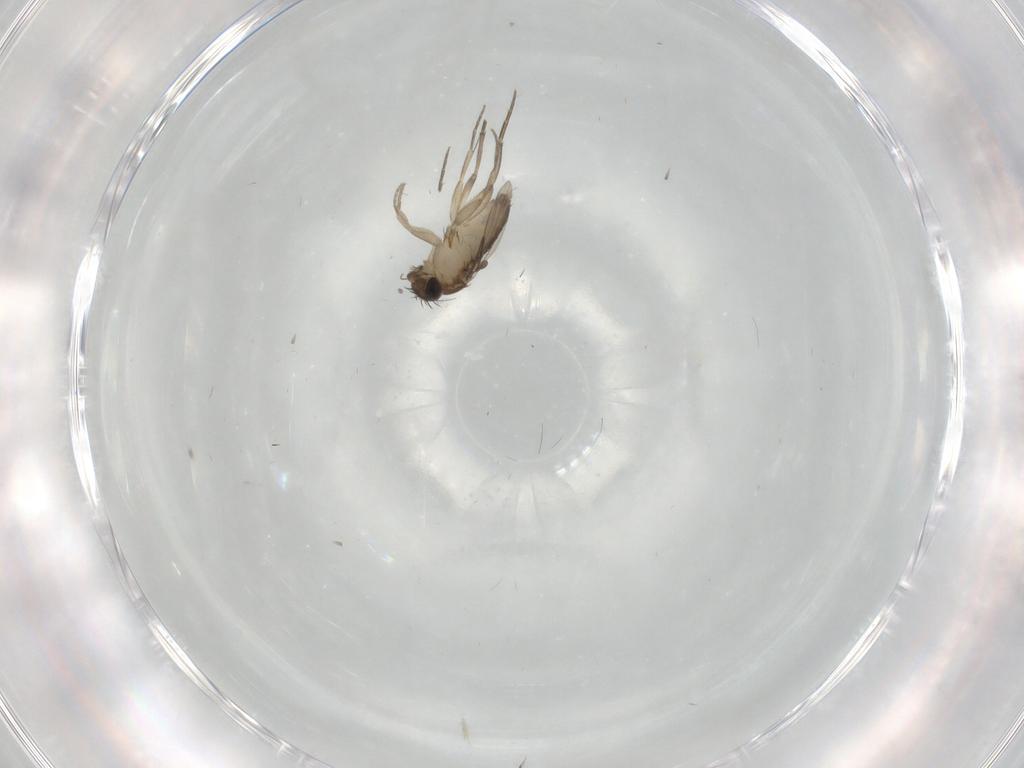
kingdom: Animalia
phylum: Arthropoda
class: Insecta
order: Diptera
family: Phoridae
